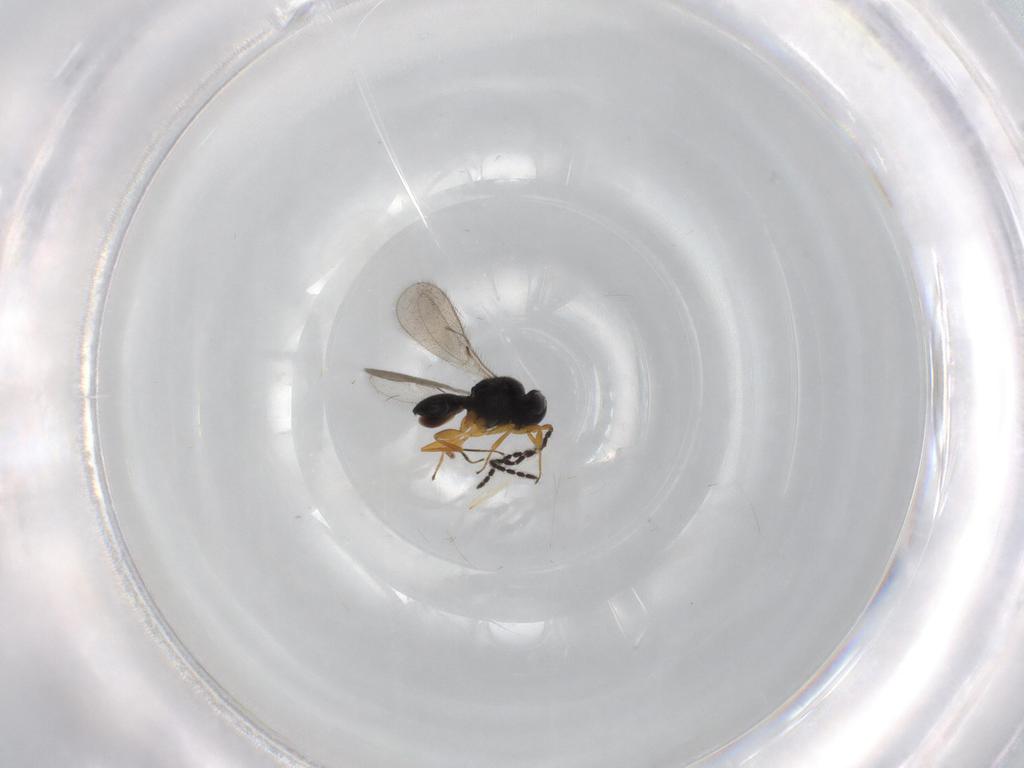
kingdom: Animalia
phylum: Arthropoda
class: Insecta
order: Hymenoptera
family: Scelionidae
